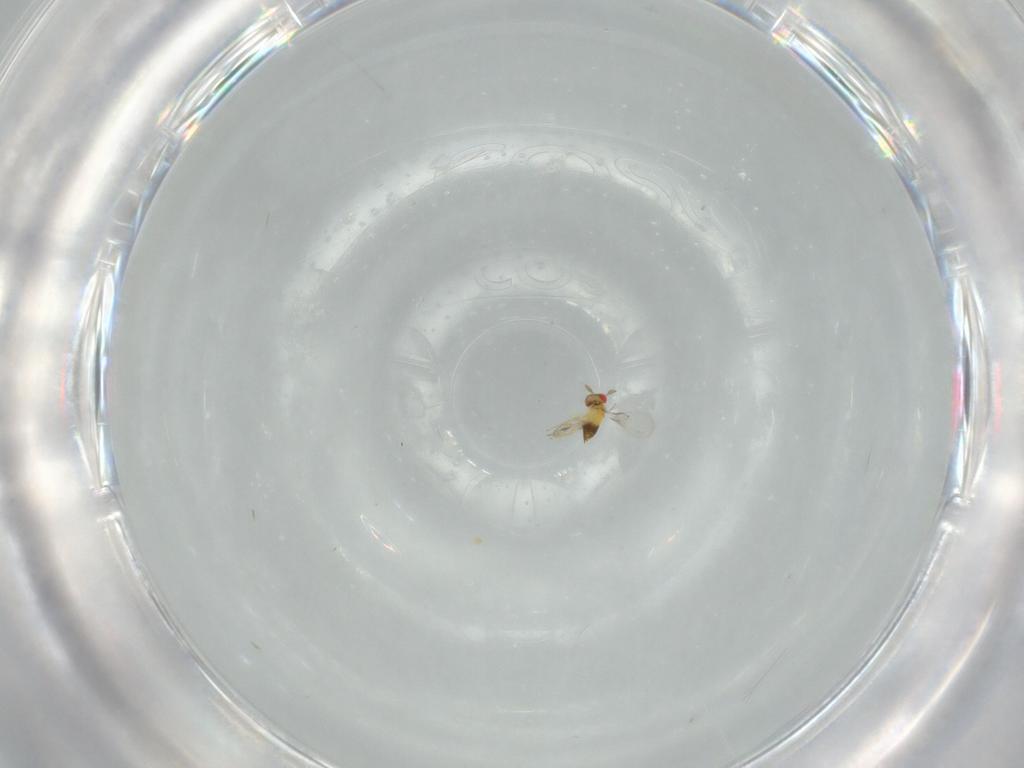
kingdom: Animalia
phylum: Arthropoda
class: Insecta
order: Hymenoptera
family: Trichogrammatidae
